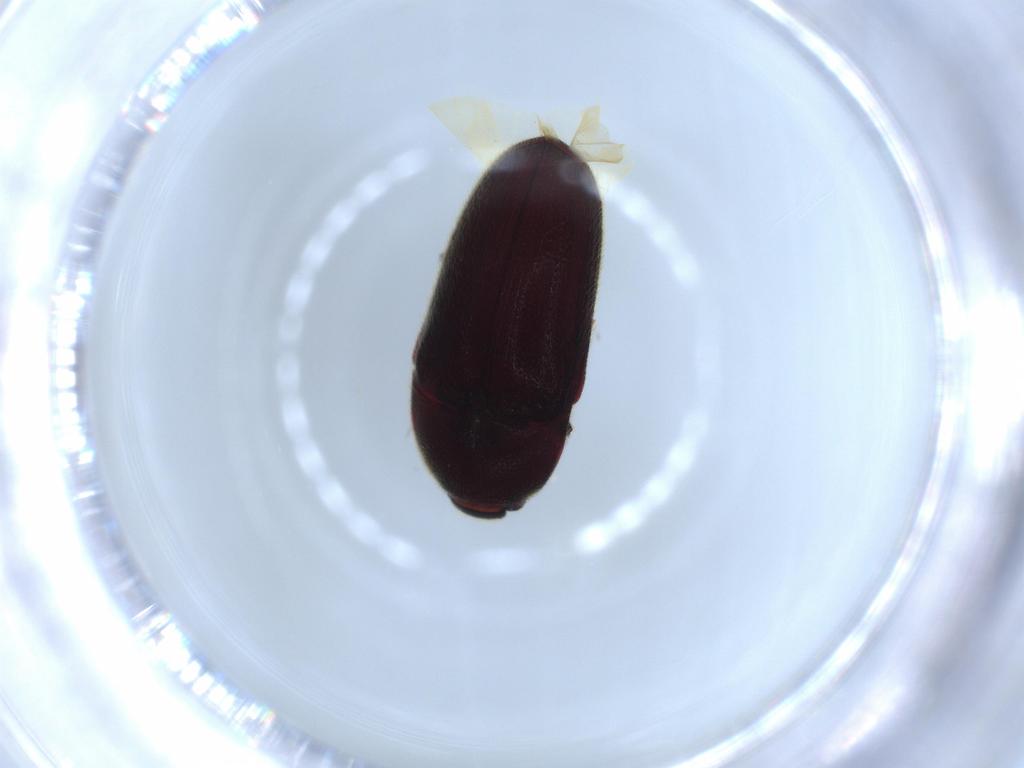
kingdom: Animalia
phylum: Arthropoda
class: Insecta
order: Coleoptera
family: Throscidae
